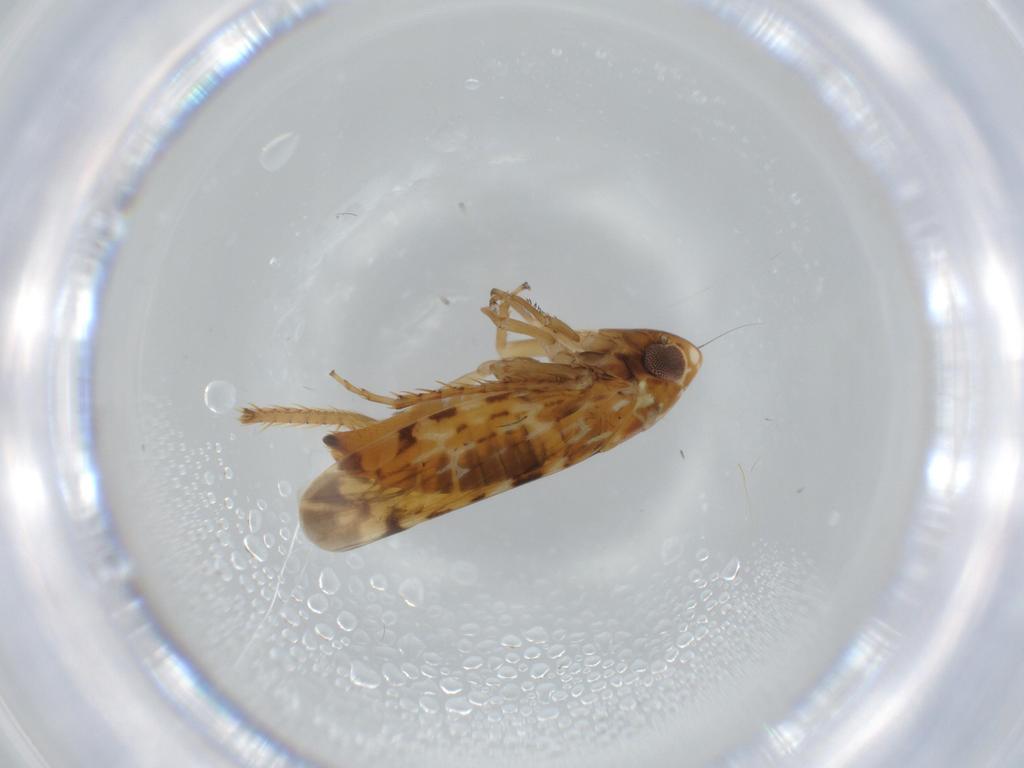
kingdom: Animalia
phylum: Arthropoda
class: Insecta
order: Hemiptera
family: Cicadellidae
